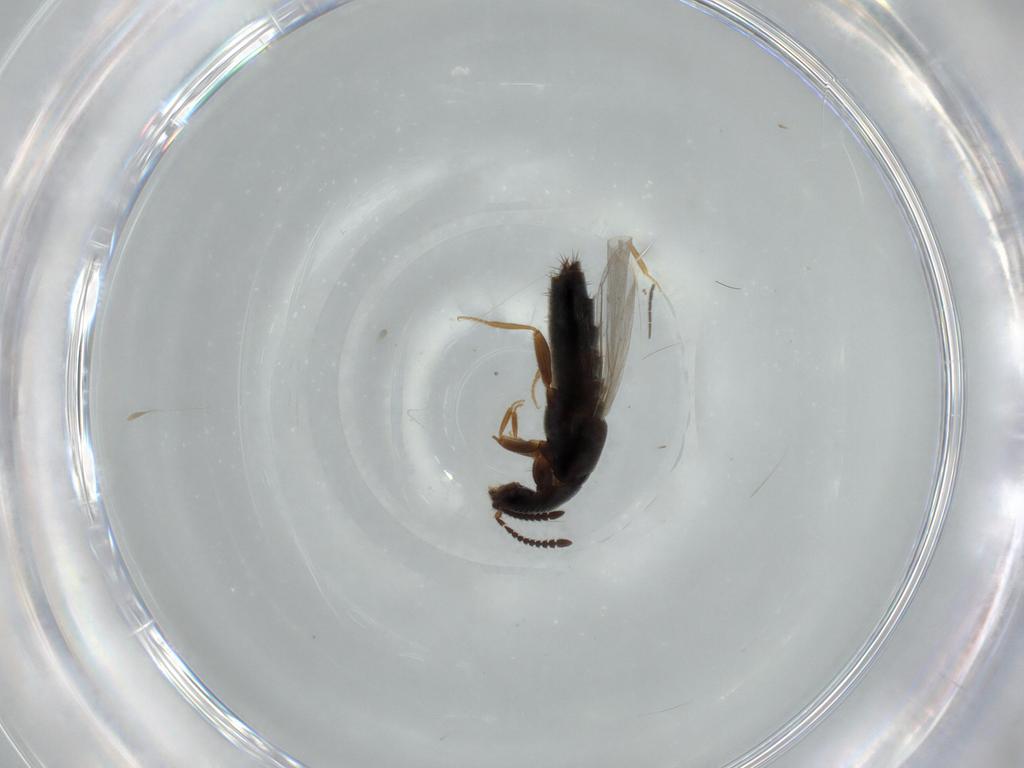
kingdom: Animalia
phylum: Arthropoda
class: Insecta
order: Coleoptera
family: Staphylinidae
